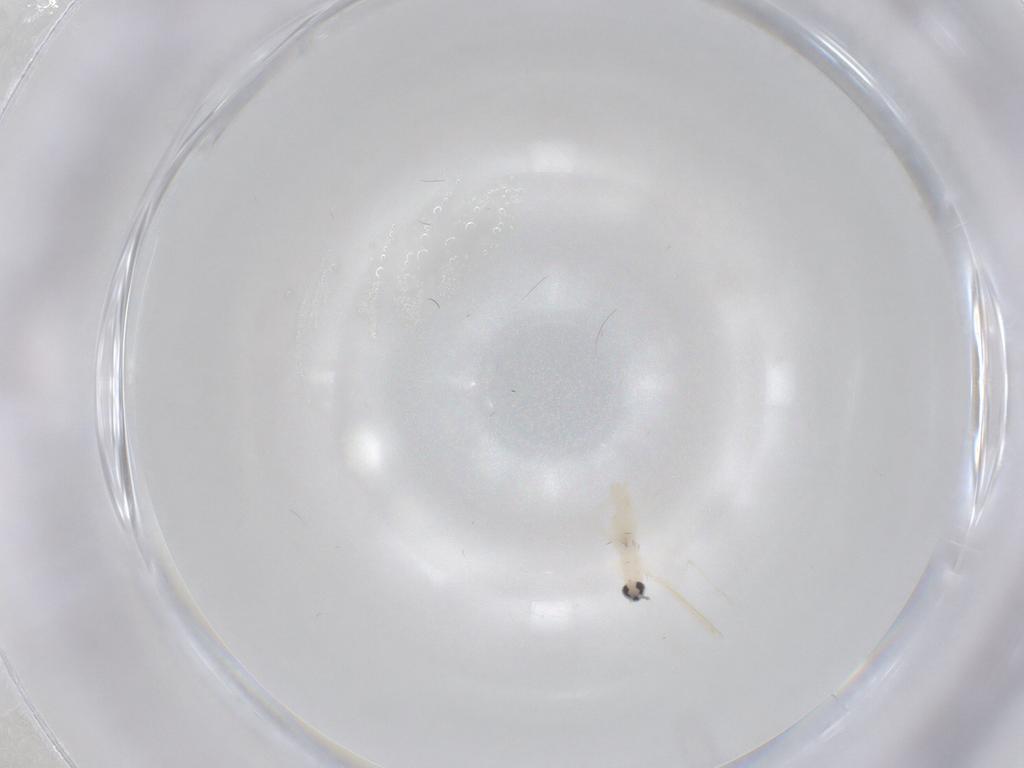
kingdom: Animalia
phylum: Arthropoda
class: Insecta
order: Diptera
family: Cecidomyiidae
